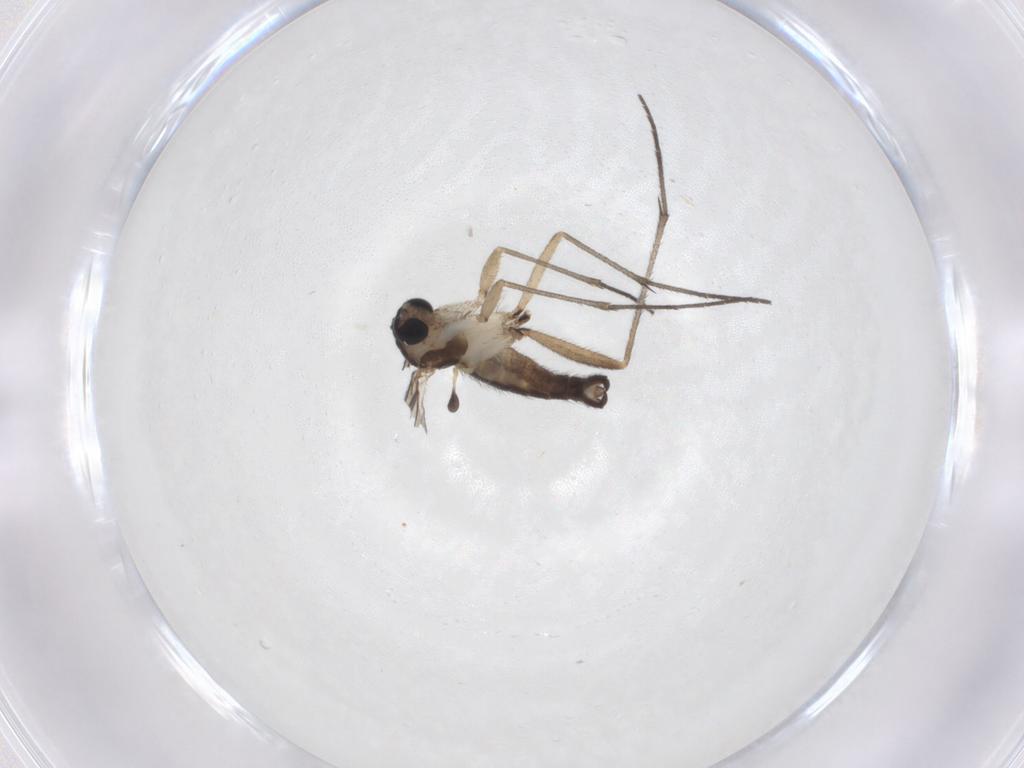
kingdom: Animalia
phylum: Arthropoda
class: Insecta
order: Diptera
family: Sciaridae
